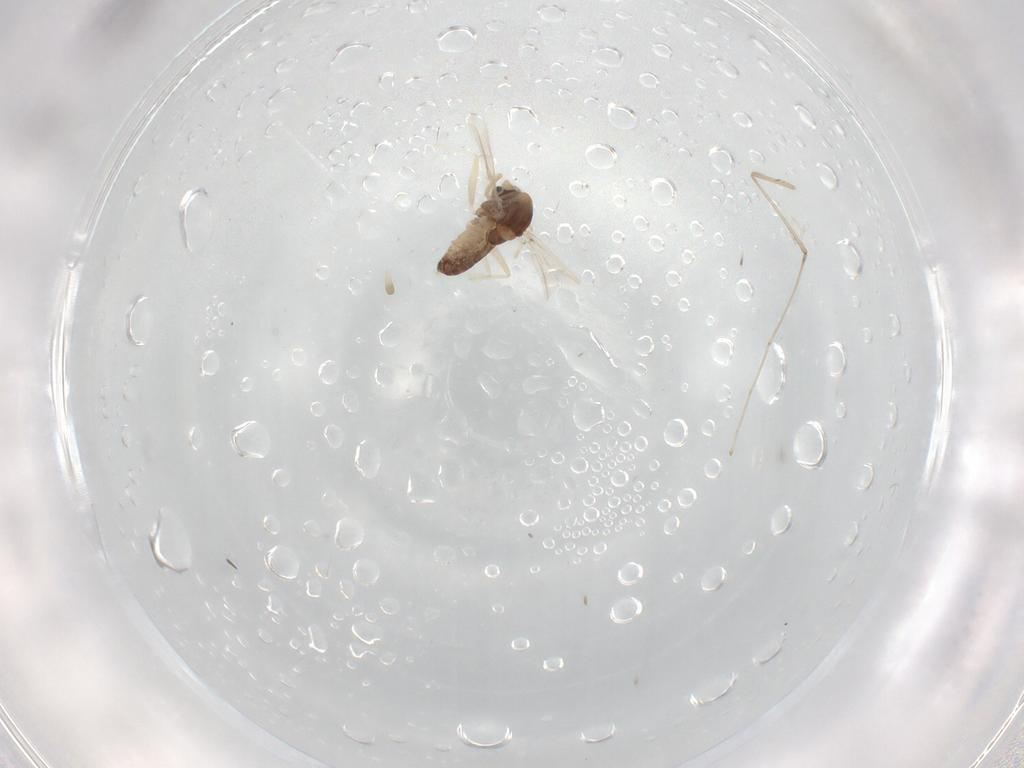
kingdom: Animalia
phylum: Arthropoda
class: Insecta
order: Diptera
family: Chironomidae
